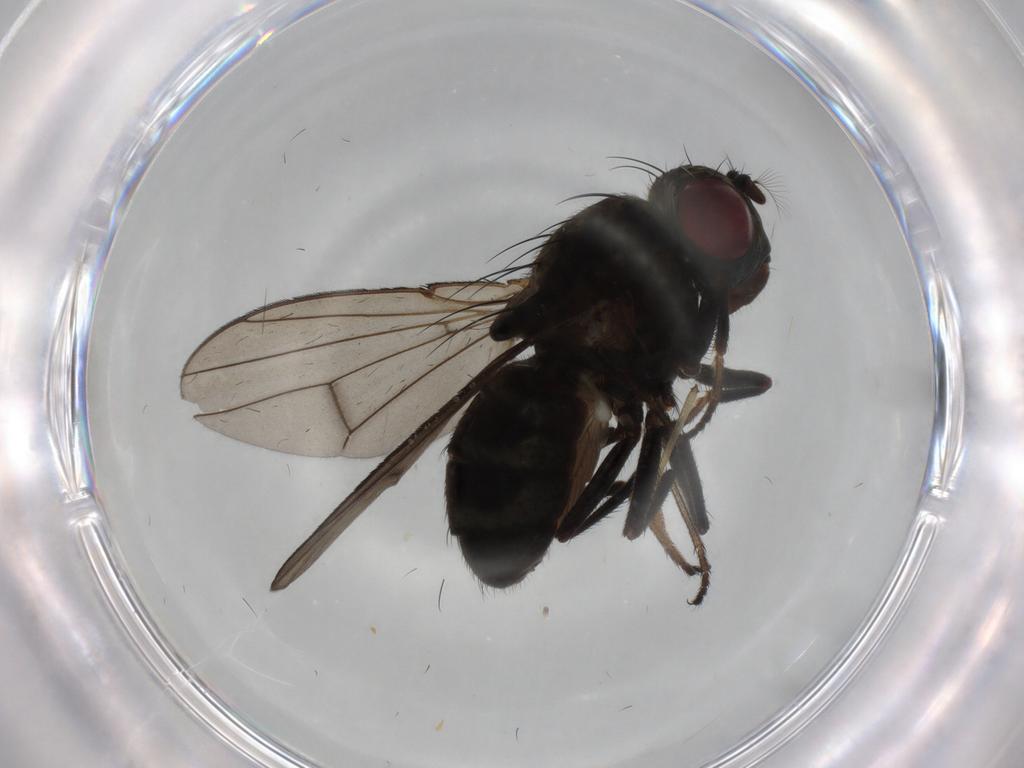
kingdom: Animalia
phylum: Arthropoda
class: Insecta
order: Diptera
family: Ephydridae
